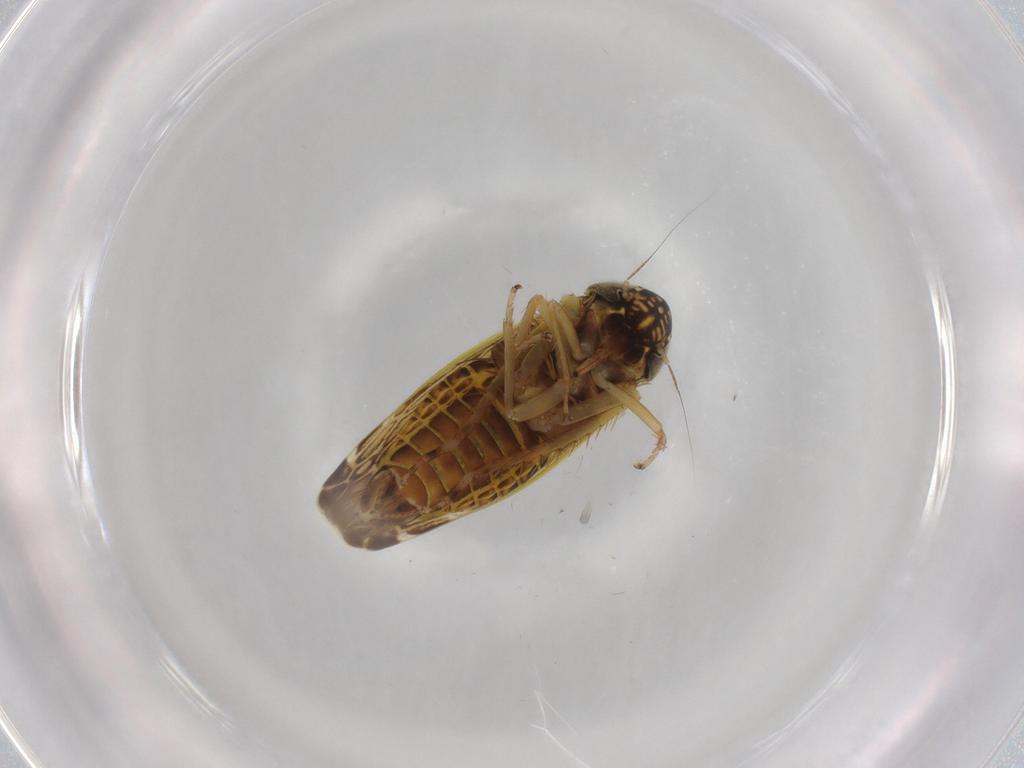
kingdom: Animalia
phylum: Arthropoda
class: Insecta
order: Hemiptera
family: Cicadellidae
